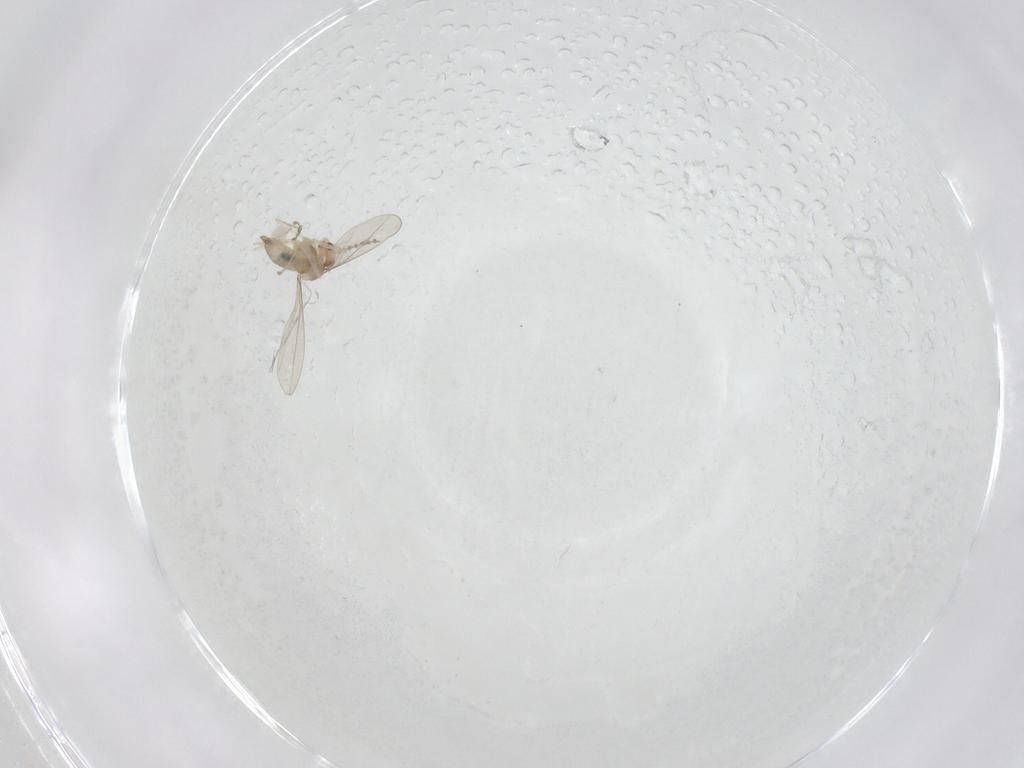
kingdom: Animalia
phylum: Arthropoda
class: Insecta
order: Diptera
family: Cecidomyiidae
